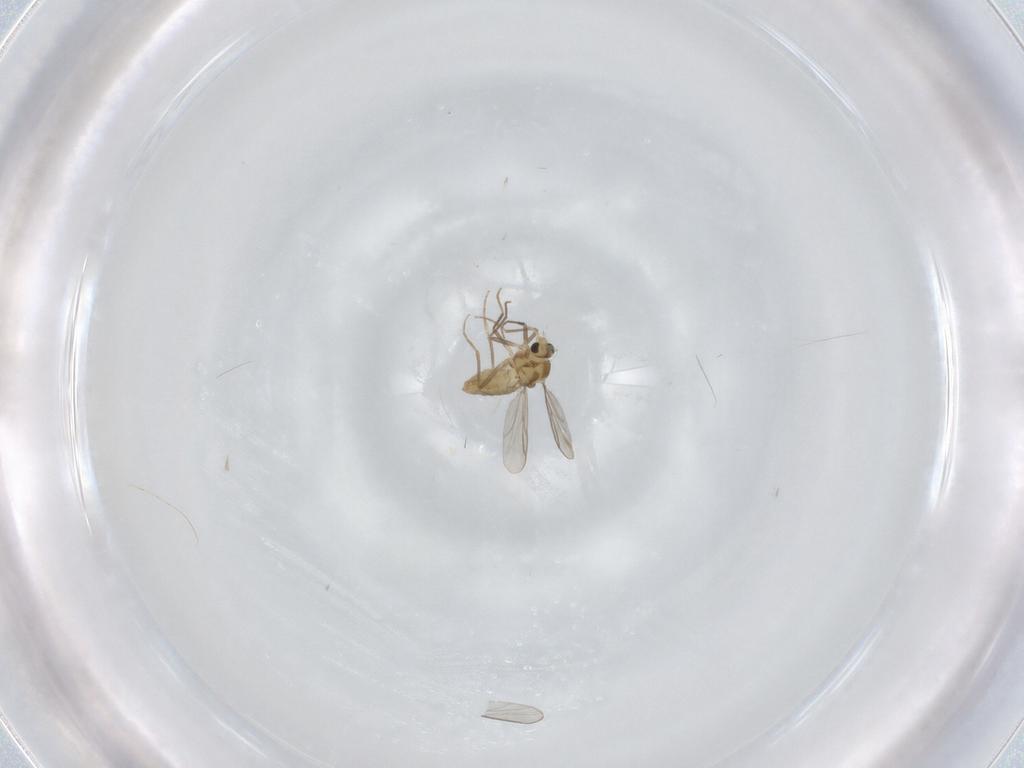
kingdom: Animalia
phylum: Arthropoda
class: Insecta
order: Diptera
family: Chironomidae
